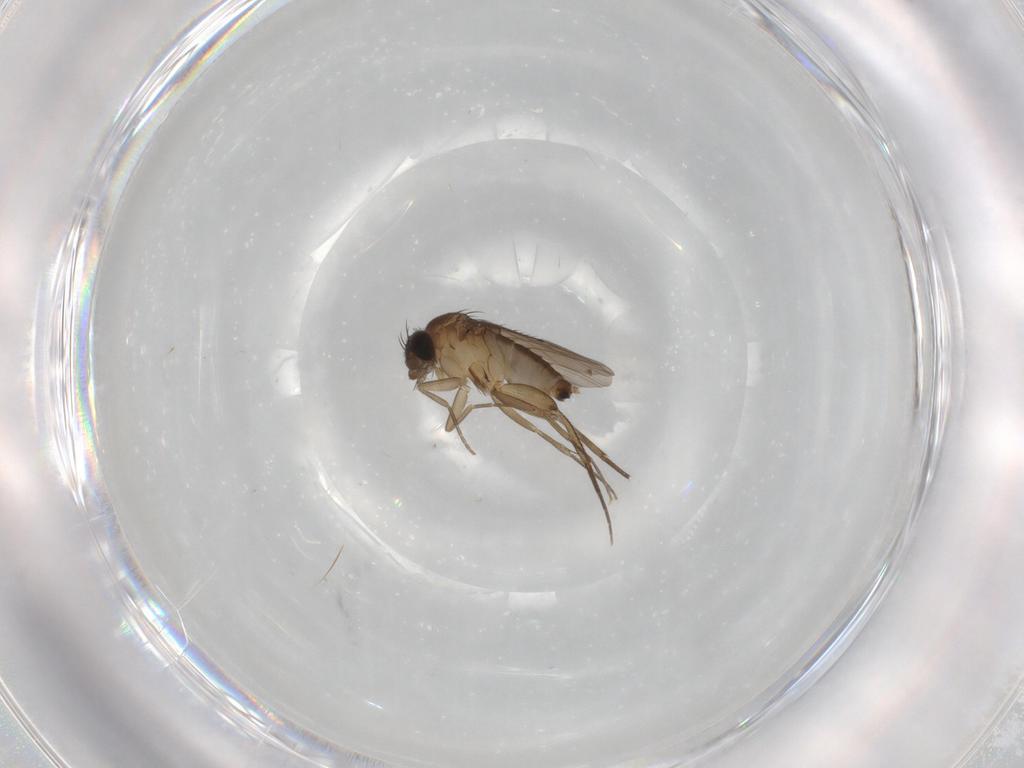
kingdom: Animalia
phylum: Arthropoda
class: Insecta
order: Diptera
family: Phoridae
